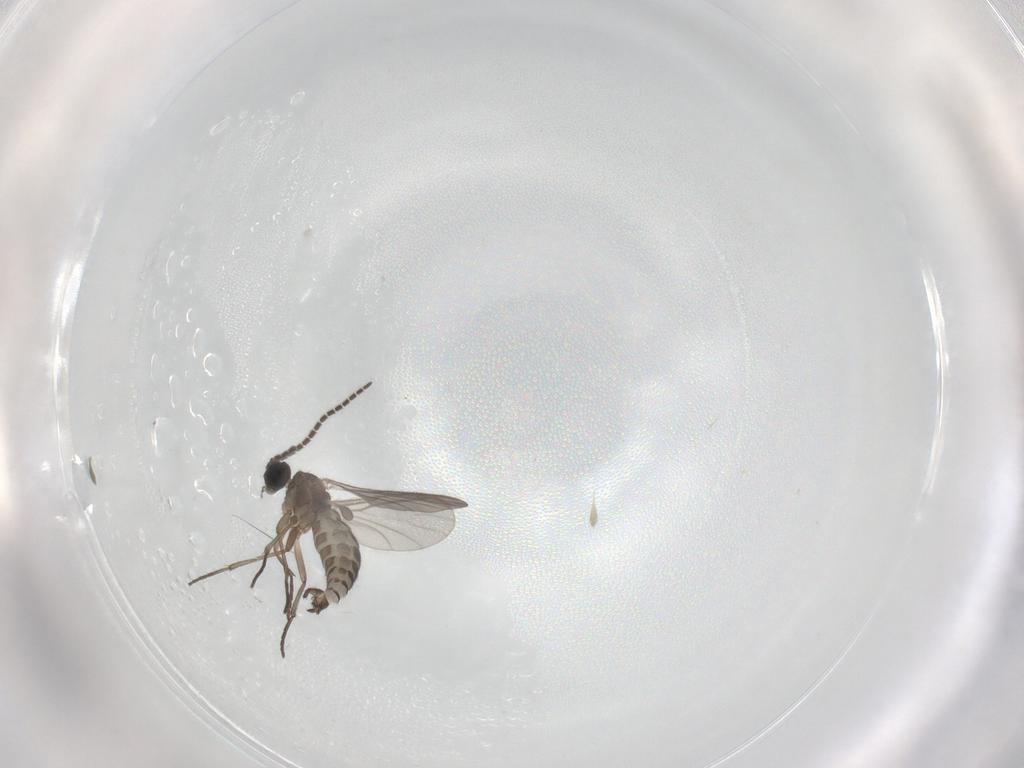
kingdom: Animalia
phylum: Arthropoda
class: Insecta
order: Diptera
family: Sciaridae
